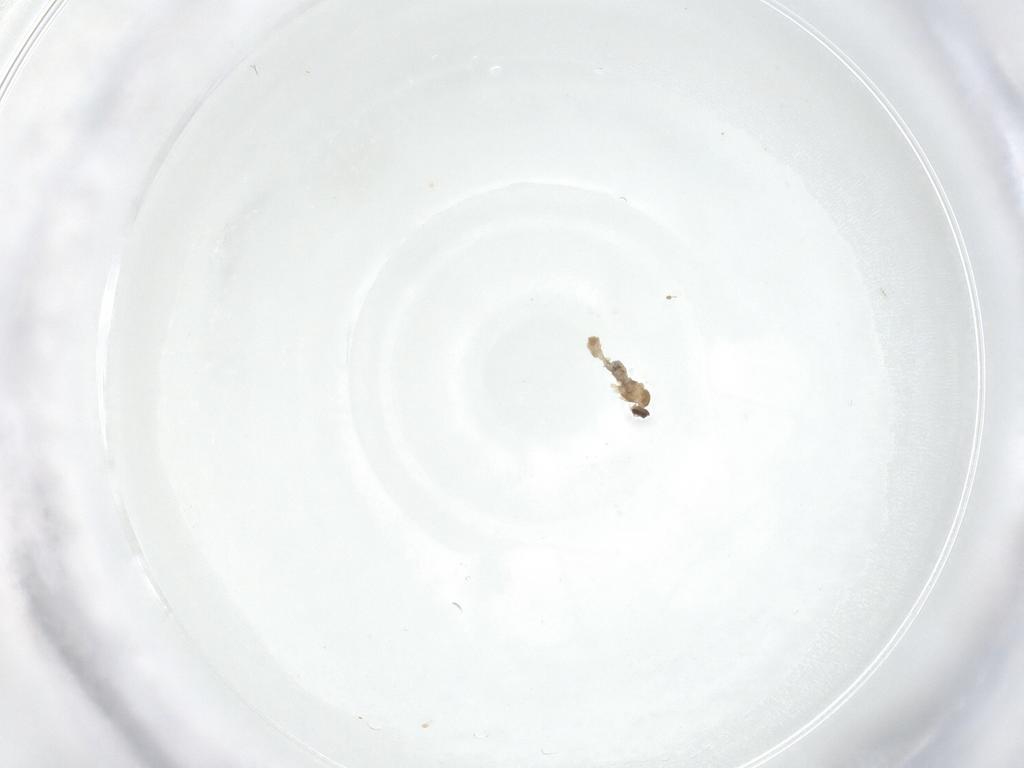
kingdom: Animalia
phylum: Arthropoda
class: Insecta
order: Diptera
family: Cecidomyiidae
